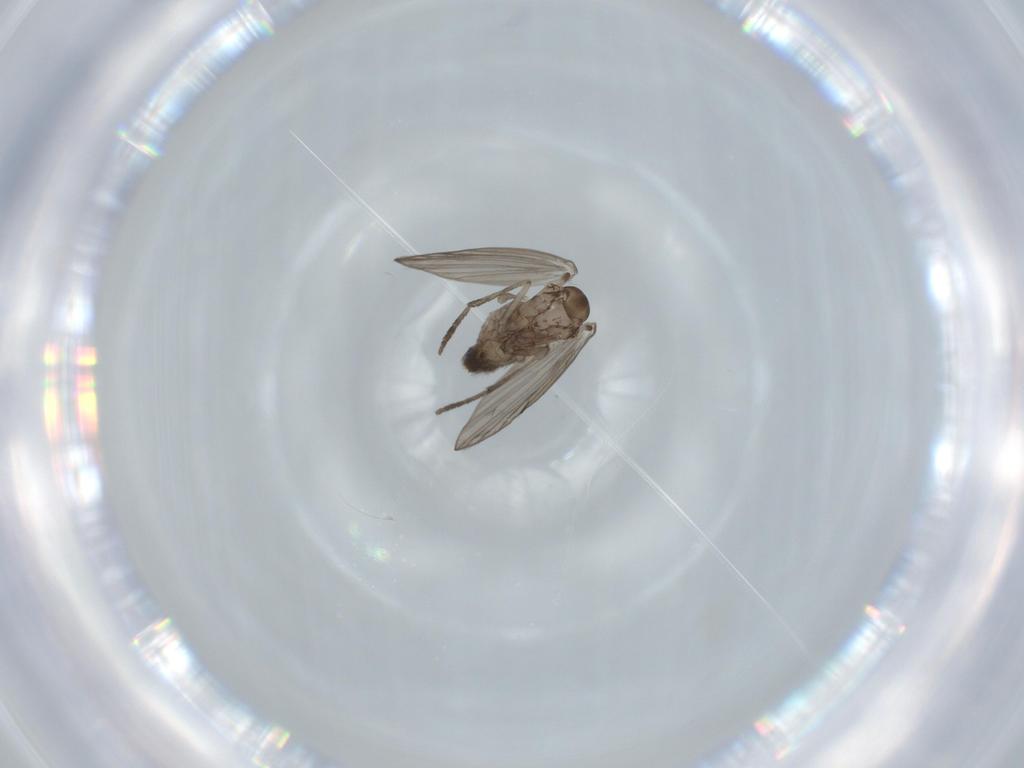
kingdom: Animalia
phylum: Arthropoda
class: Insecta
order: Diptera
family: Psychodidae
